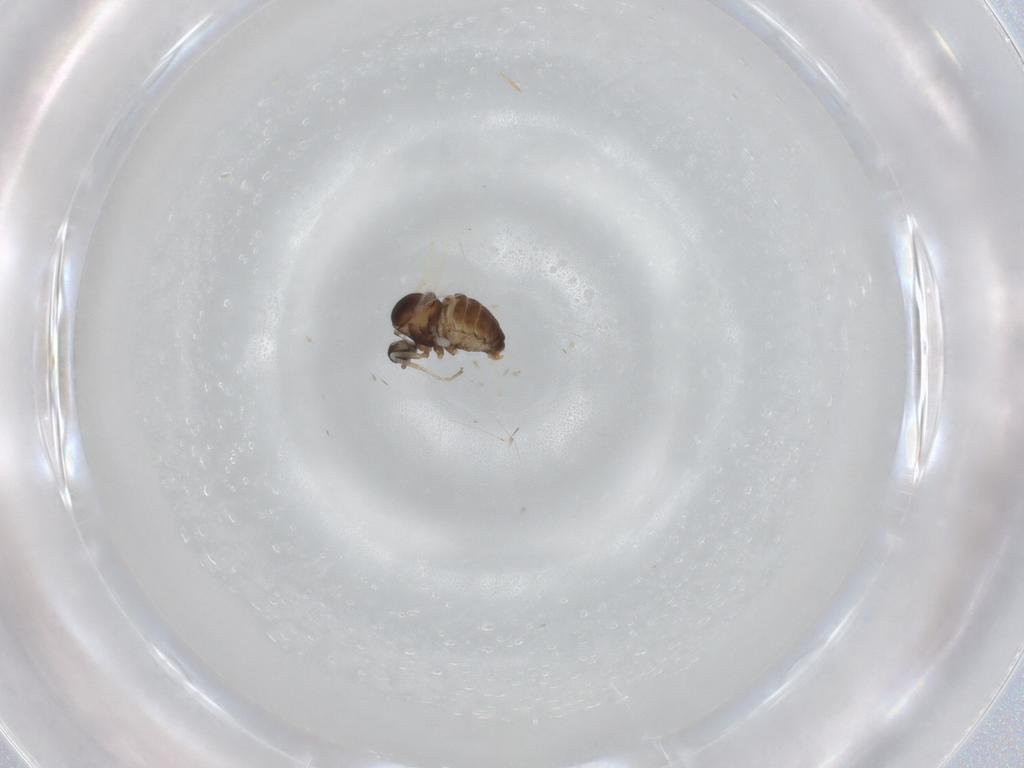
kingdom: Animalia
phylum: Arthropoda
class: Insecta
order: Diptera
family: Cecidomyiidae
